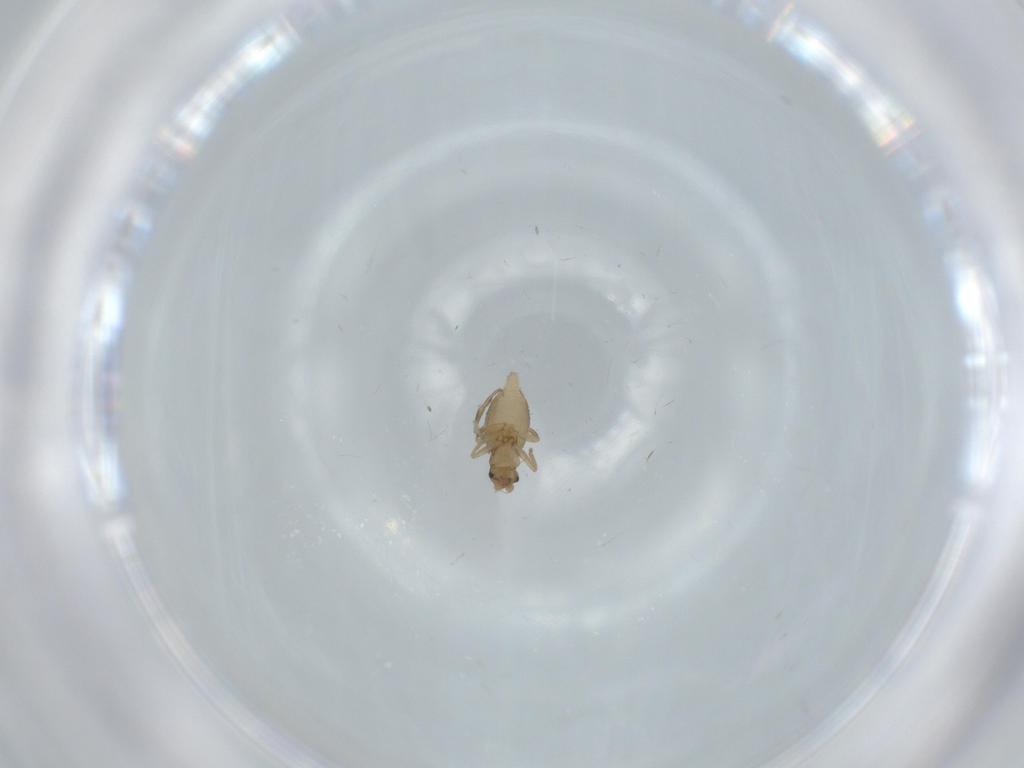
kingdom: Animalia
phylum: Arthropoda
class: Insecta
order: Diptera
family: Phoridae
